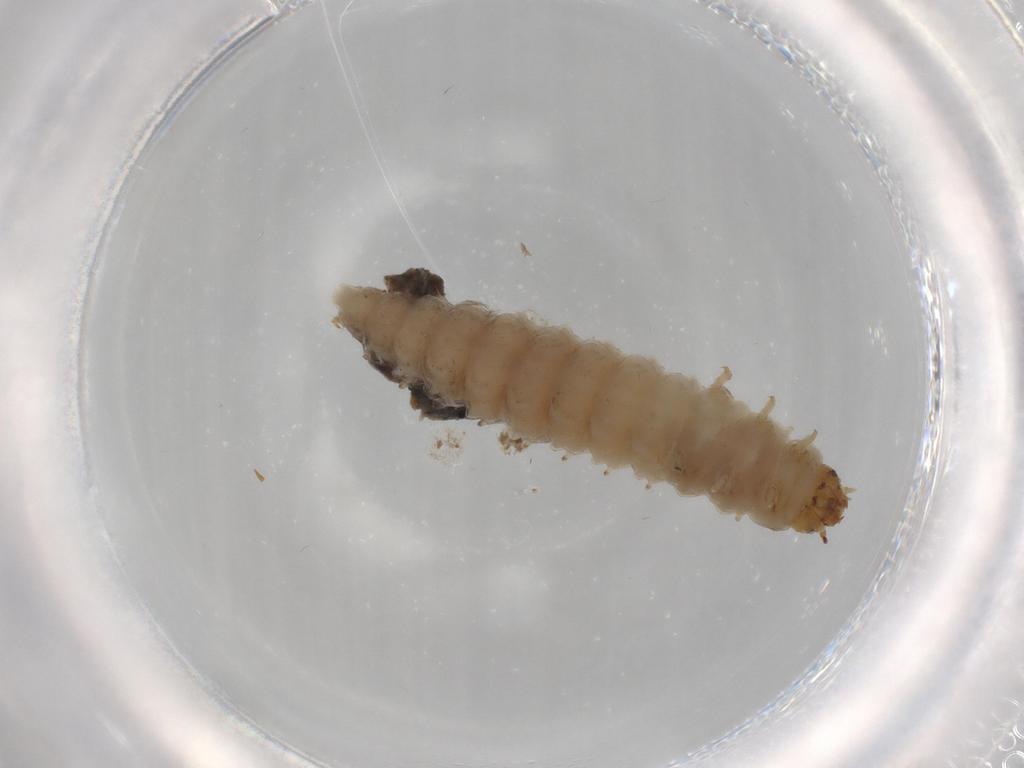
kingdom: Animalia
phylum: Arthropoda
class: Insecta
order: Coleoptera
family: Nitidulidae
